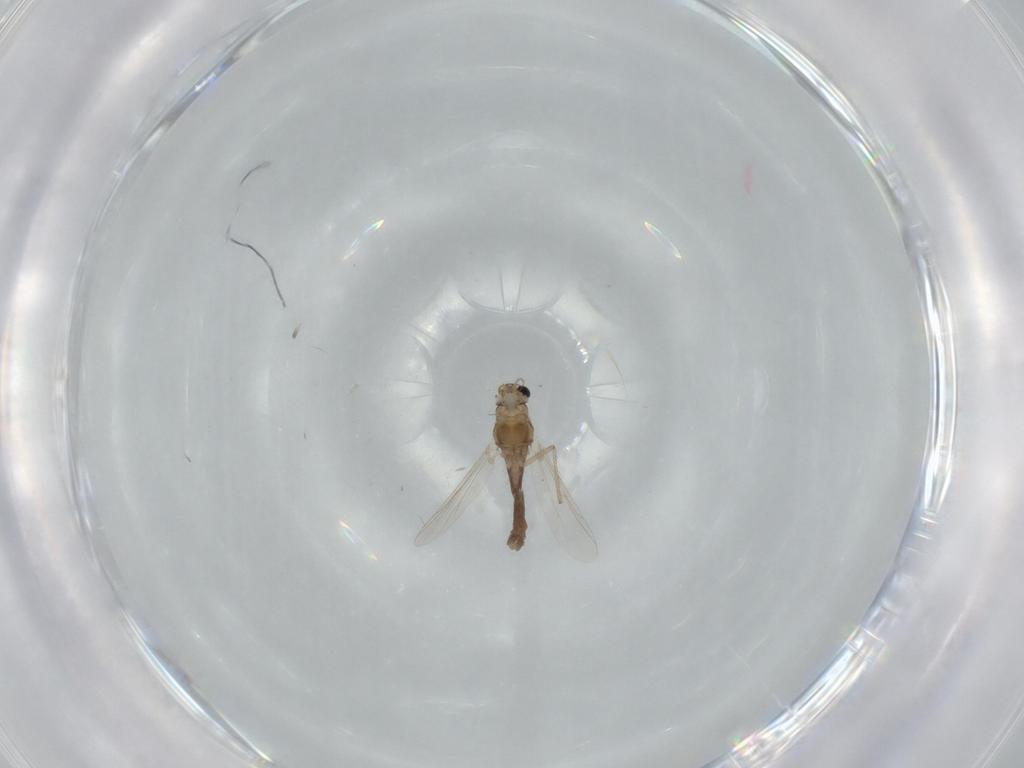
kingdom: Animalia
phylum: Arthropoda
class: Insecta
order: Diptera
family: Chironomidae
